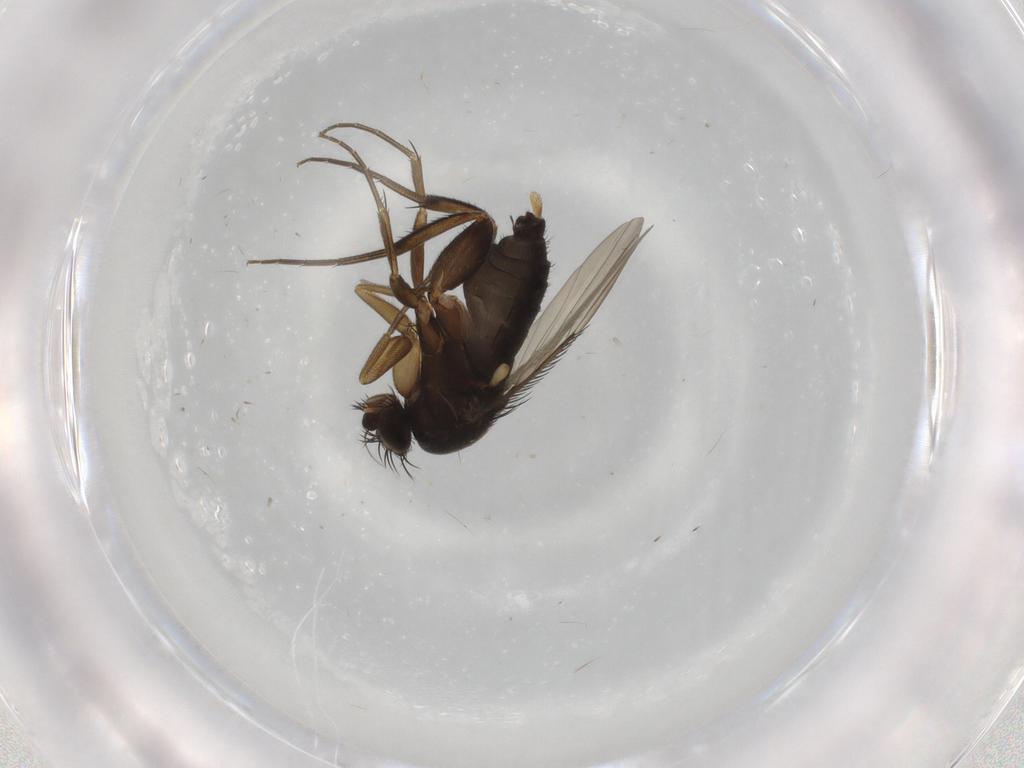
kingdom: Animalia
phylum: Arthropoda
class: Insecta
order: Diptera
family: Phoridae
